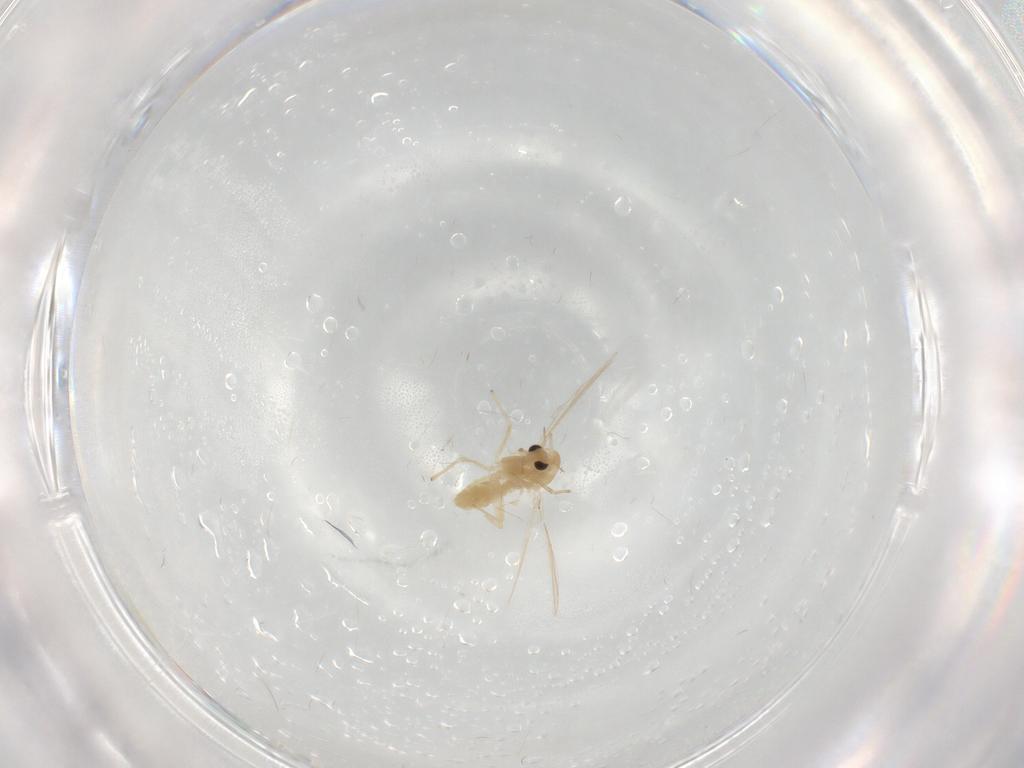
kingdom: Animalia
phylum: Arthropoda
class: Insecta
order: Diptera
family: Chironomidae
